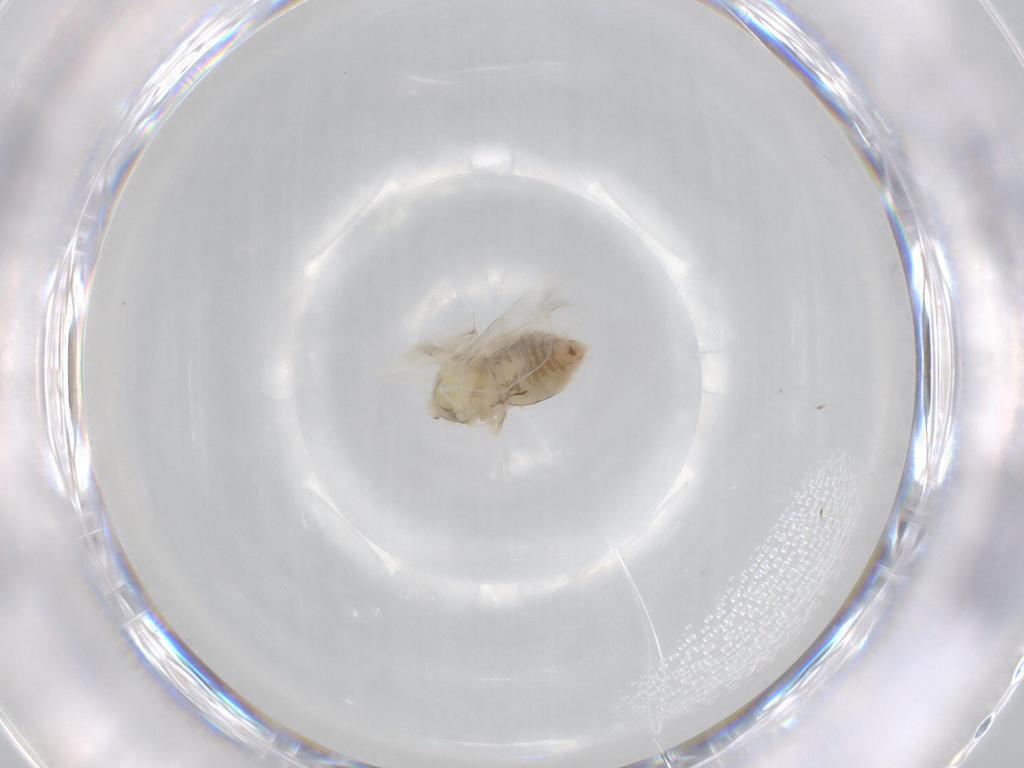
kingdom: Animalia
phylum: Arthropoda
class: Insecta
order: Hemiptera
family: Aleyrodidae
